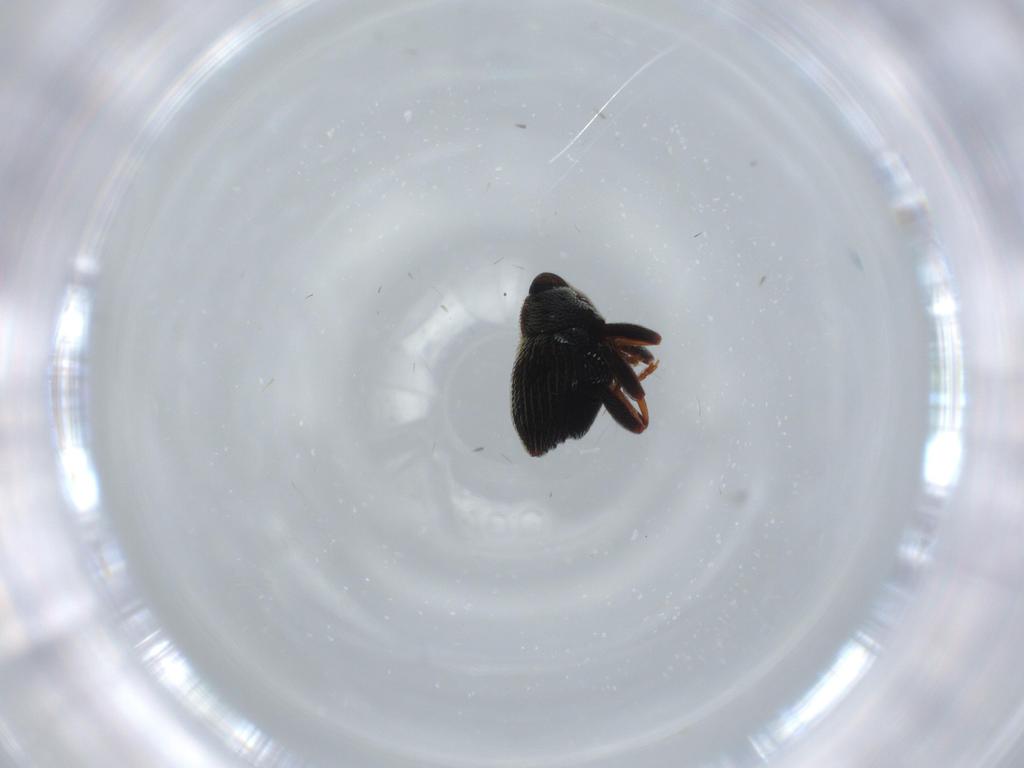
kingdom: Animalia
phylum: Arthropoda
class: Insecta
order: Coleoptera
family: Chrysomelidae
